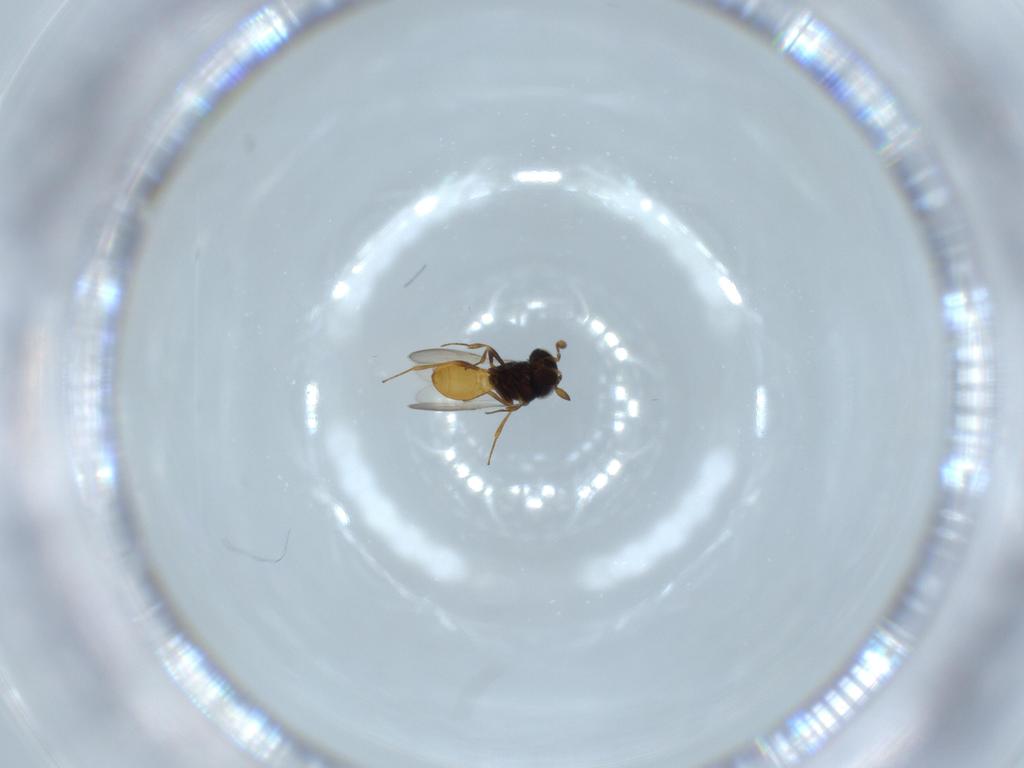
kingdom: Animalia
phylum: Arthropoda
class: Insecta
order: Hymenoptera
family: Scelionidae
